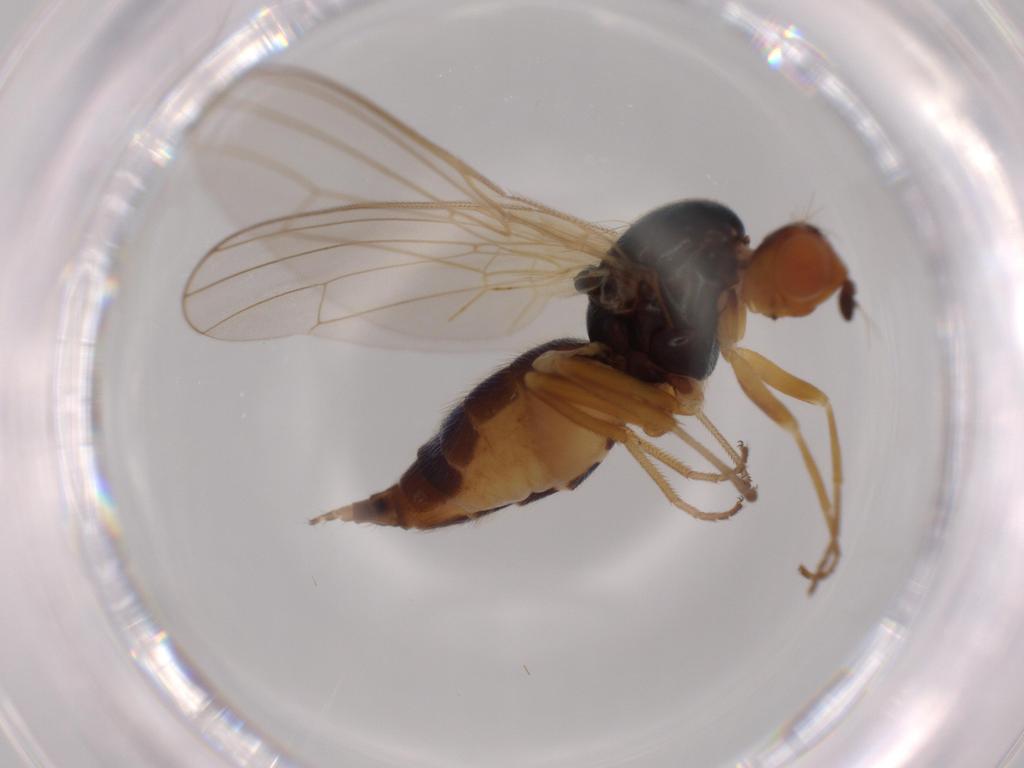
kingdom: Animalia
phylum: Arthropoda
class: Insecta
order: Diptera
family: Psilidae
